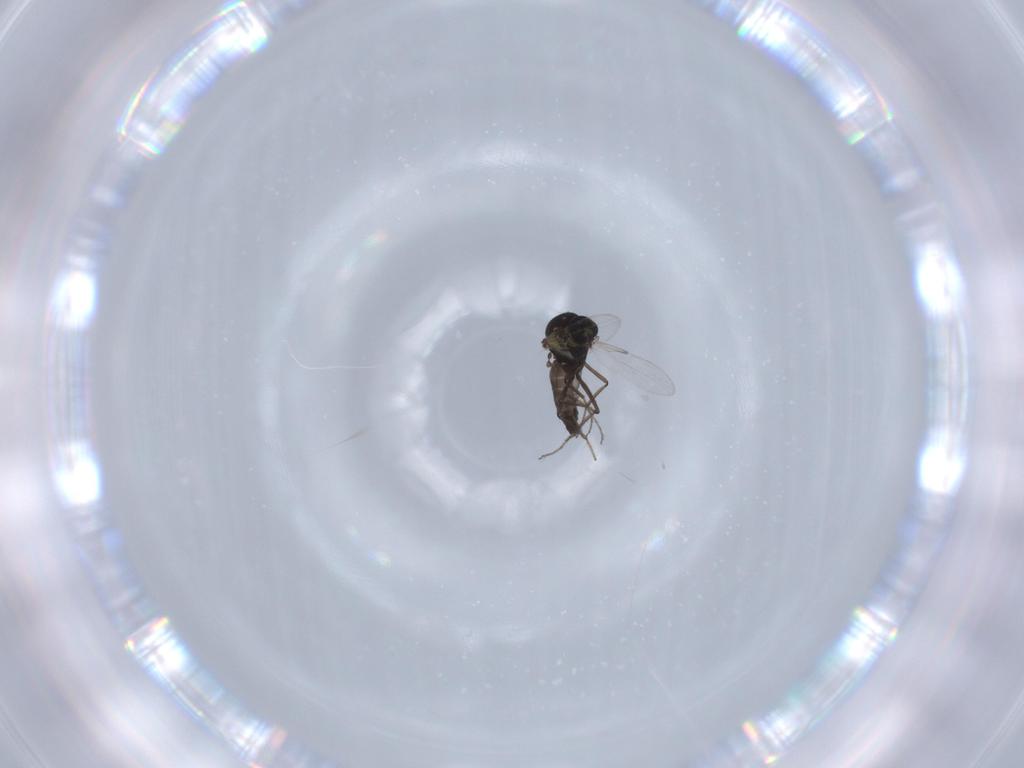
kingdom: Animalia
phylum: Arthropoda
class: Insecta
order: Diptera
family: Ceratopogonidae
